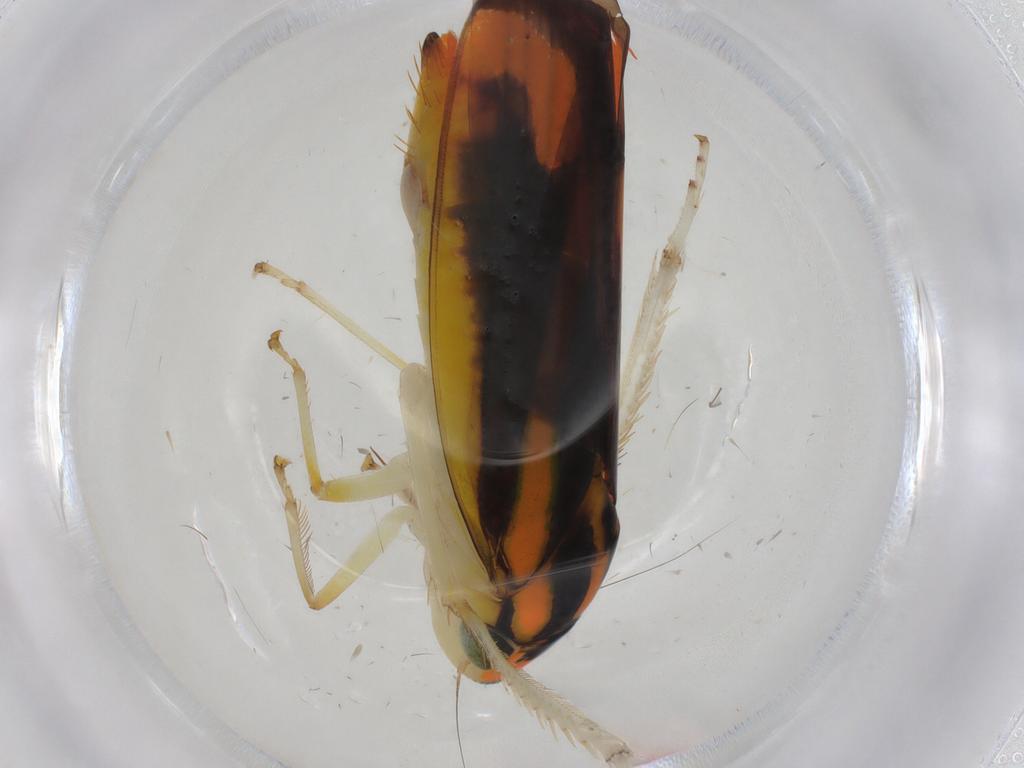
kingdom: Animalia
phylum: Arthropoda
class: Insecta
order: Hemiptera
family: Cicadellidae
